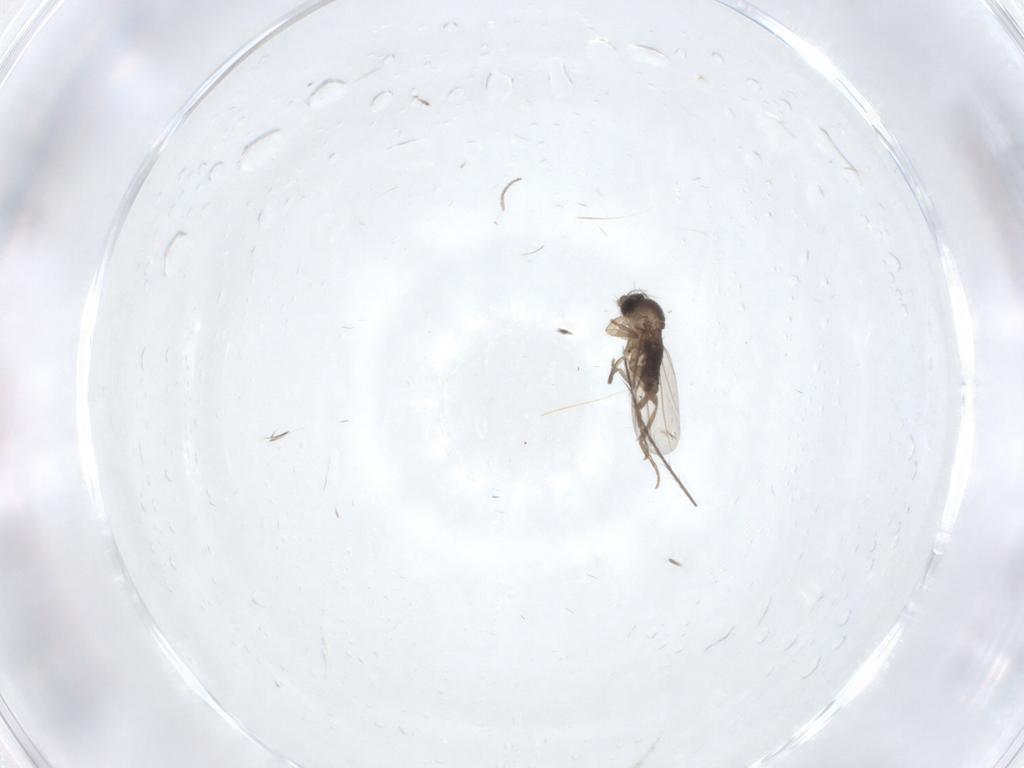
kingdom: Animalia
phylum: Arthropoda
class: Insecta
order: Diptera
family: Phoridae
